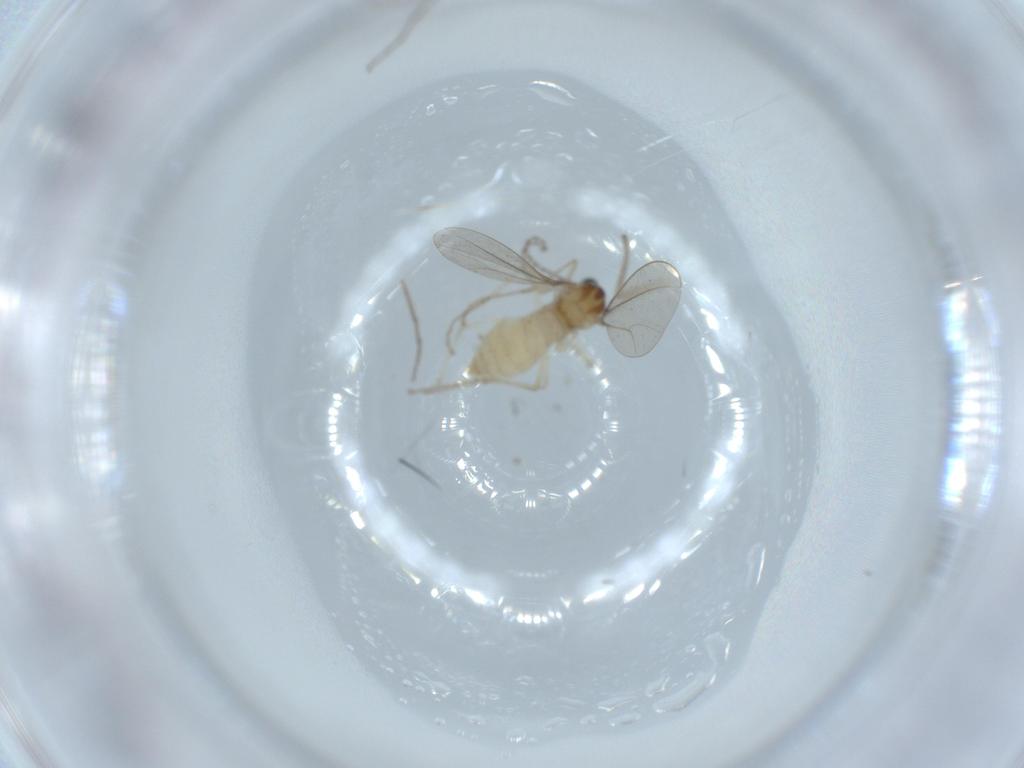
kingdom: Animalia
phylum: Arthropoda
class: Insecta
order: Diptera
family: Cecidomyiidae
